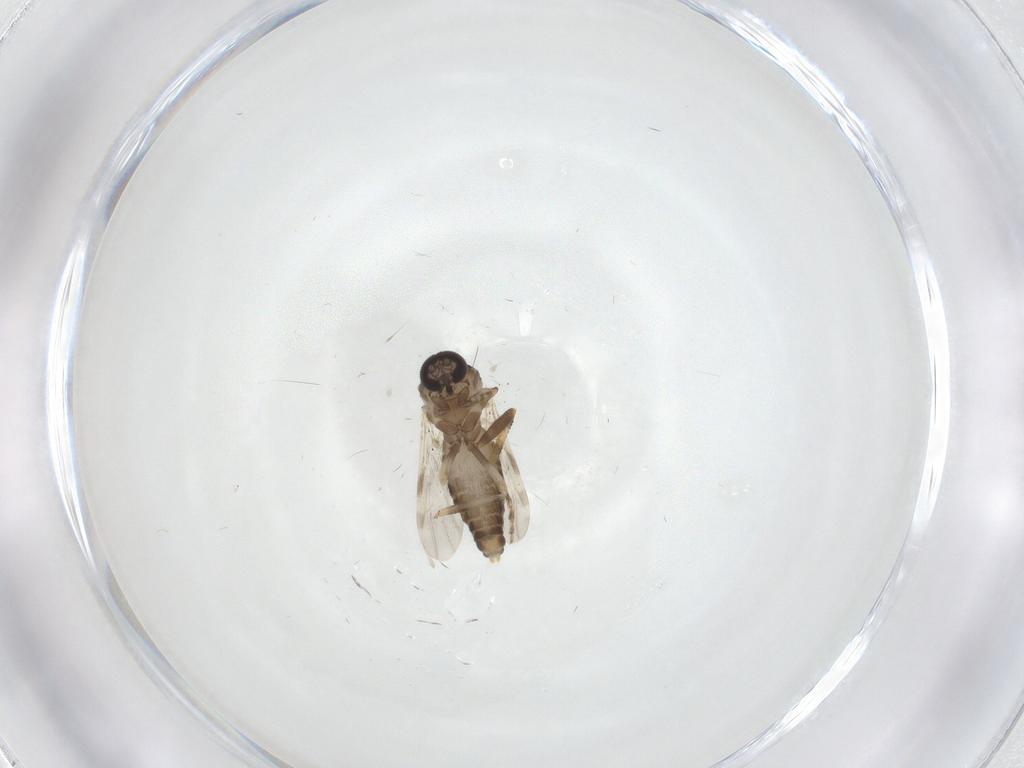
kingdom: Animalia
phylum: Arthropoda
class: Insecta
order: Diptera
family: Ceratopogonidae
